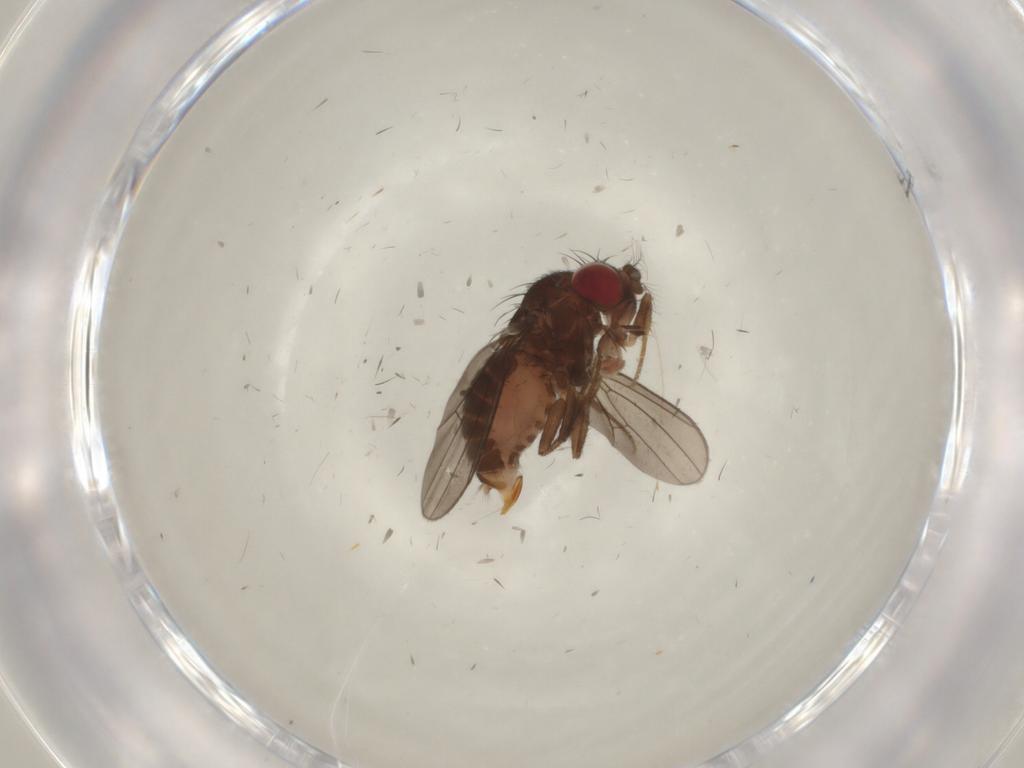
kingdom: Animalia
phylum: Arthropoda
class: Insecta
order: Diptera
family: Drosophilidae
